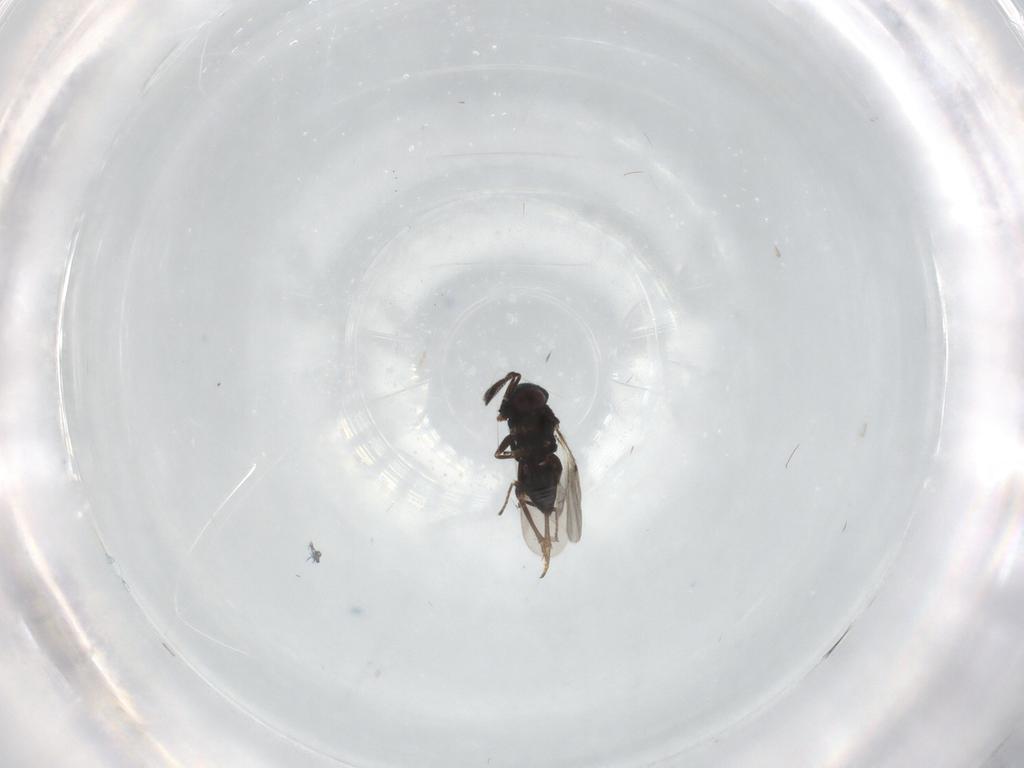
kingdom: Animalia
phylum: Arthropoda
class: Insecta
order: Hymenoptera
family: Encyrtidae
